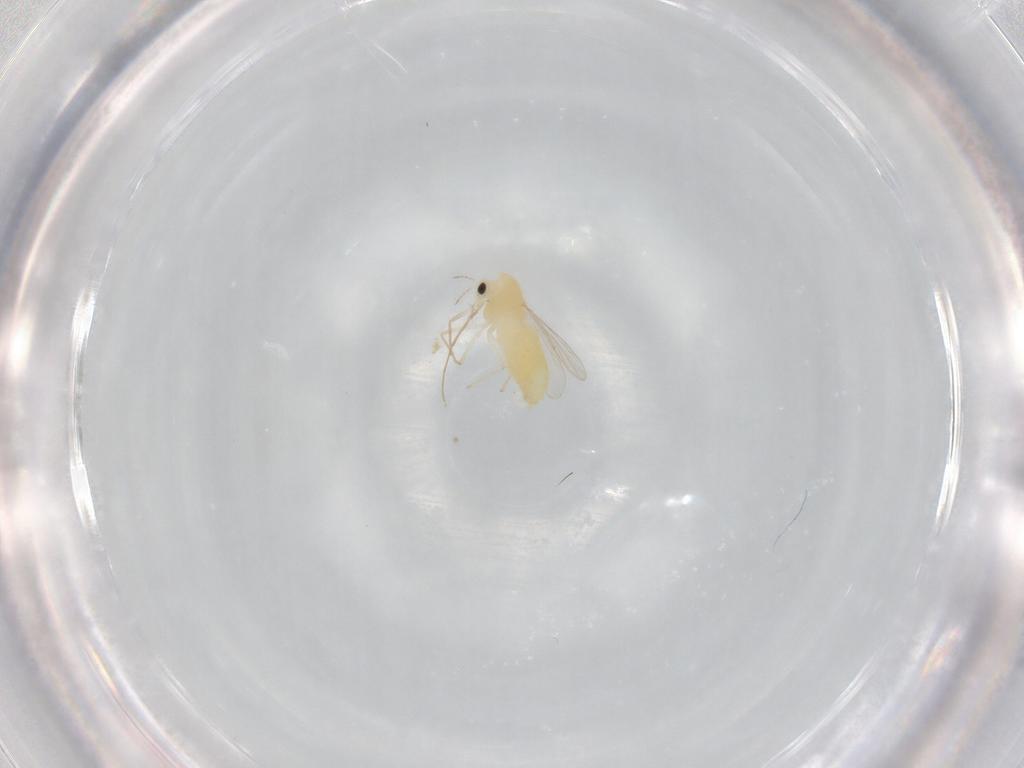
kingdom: Animalia
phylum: Arthropoda
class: Insecta
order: Diptera
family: Chironomidae
